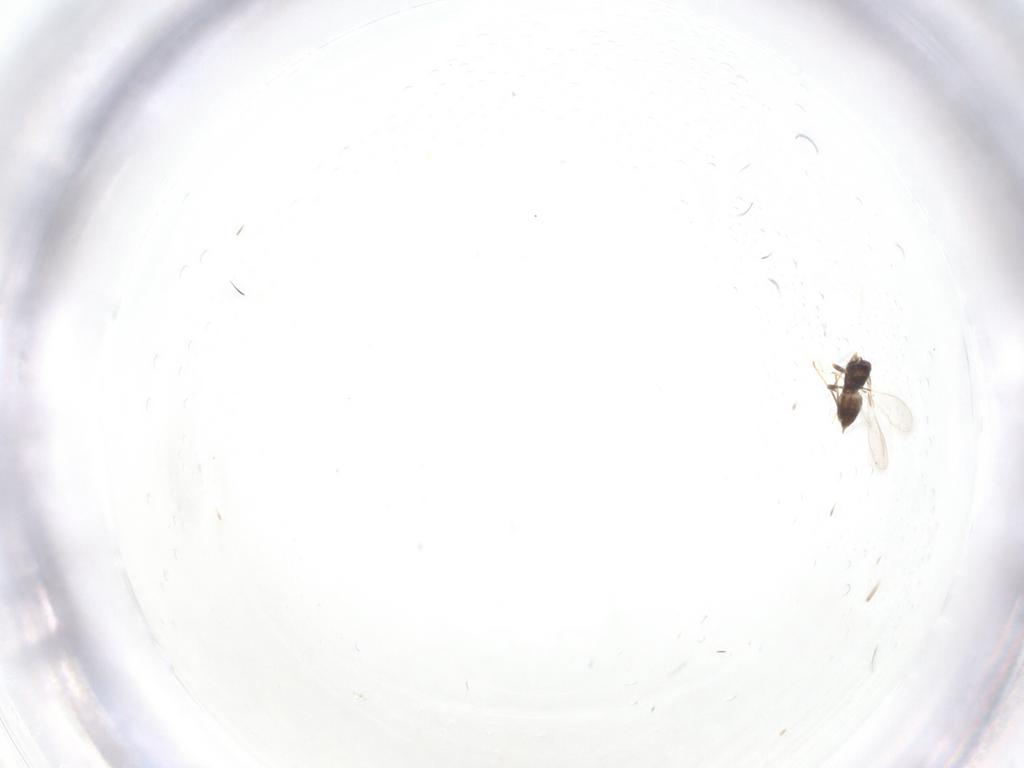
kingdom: Animalia
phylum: Arthropoda
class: Insecta
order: Hymenoptera
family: Mymaridae
